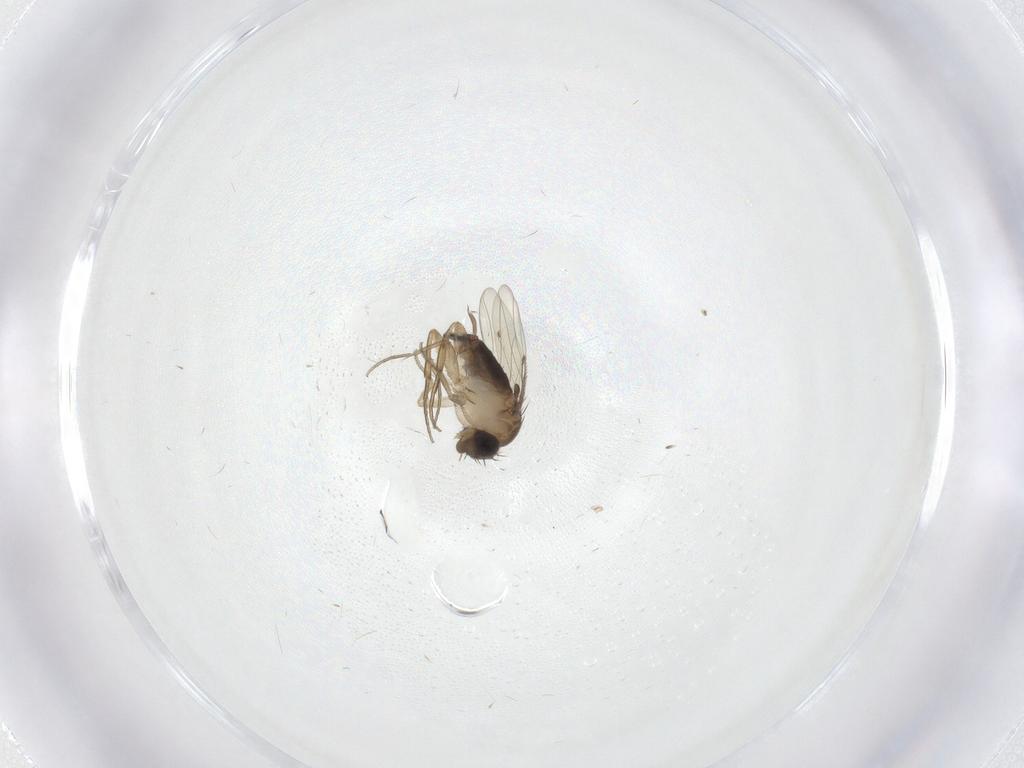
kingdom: Animalia
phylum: Arthropoda
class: Insecta
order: Diptera
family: Phoridae
